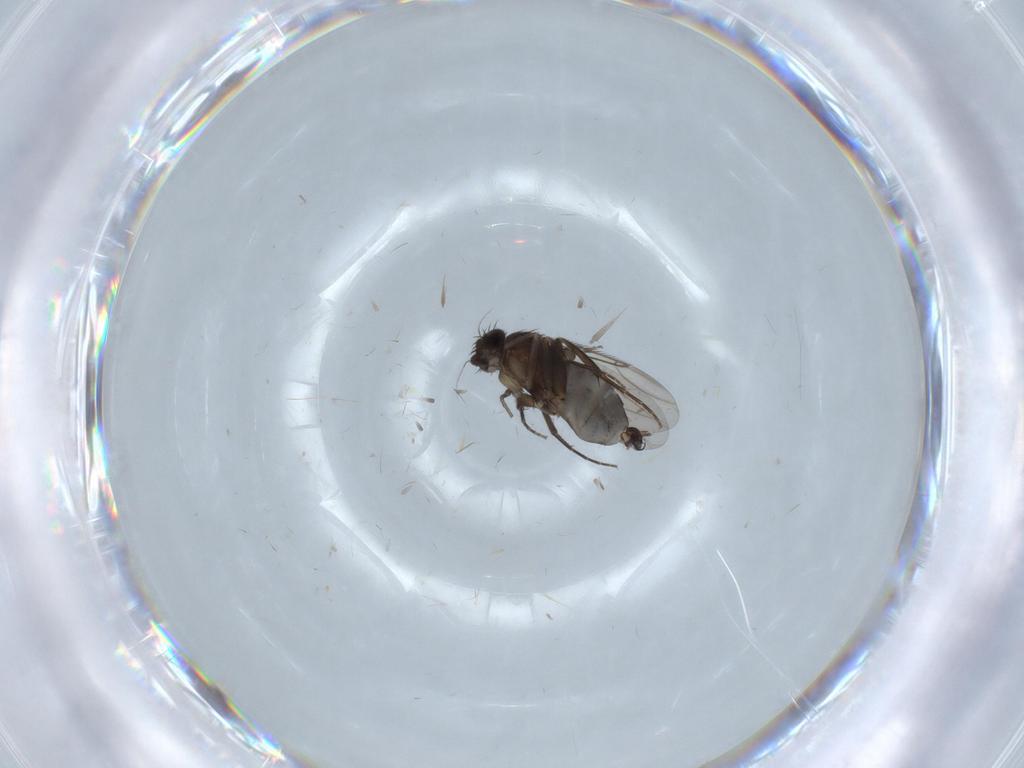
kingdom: Animalia
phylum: Arthropoda
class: Insecta
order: Diptera
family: Phoridae
